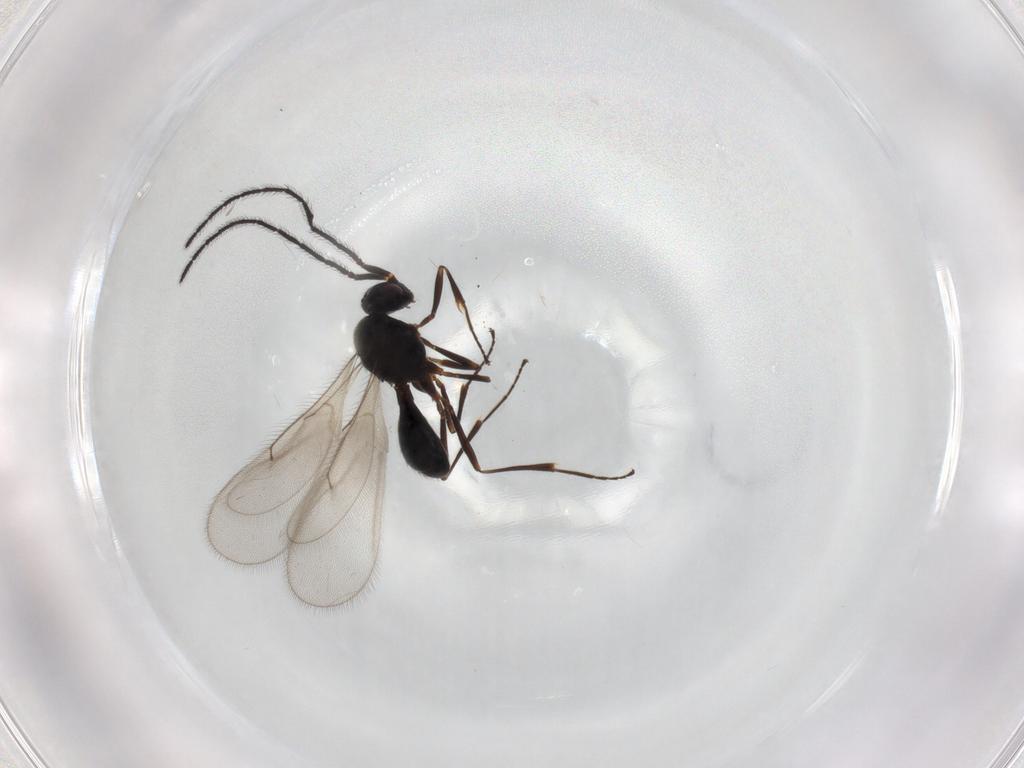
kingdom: Animalia
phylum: Arthropoda
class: Insecta
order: Hymenoptera
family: Scelionidae
